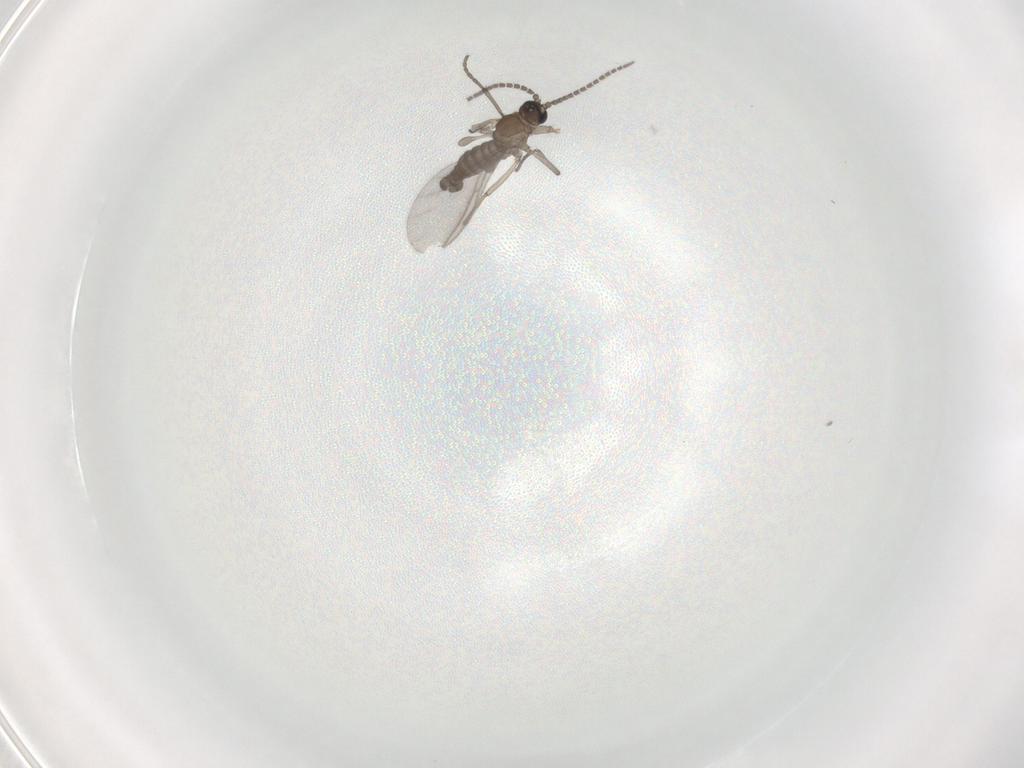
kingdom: Animalia
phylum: Arthropoda
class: Insecta
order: Diptera
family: Sciaridae
